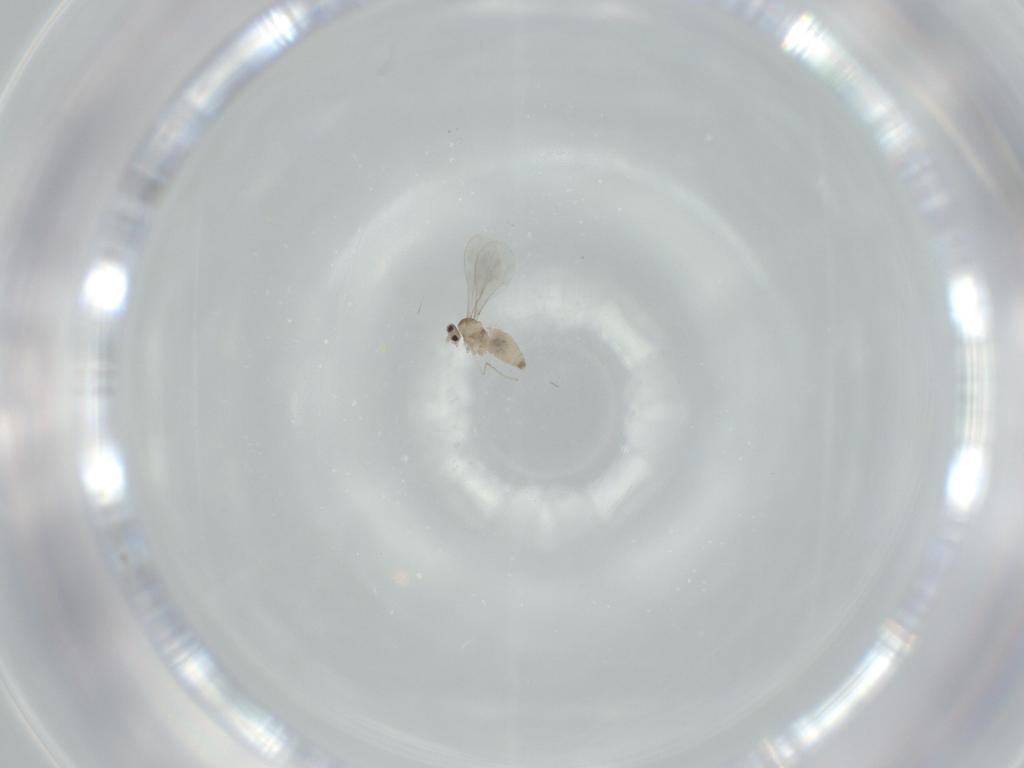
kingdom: Animalia
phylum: Arthropoda
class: Insecta
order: Diptera
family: Cecidomyiidae
